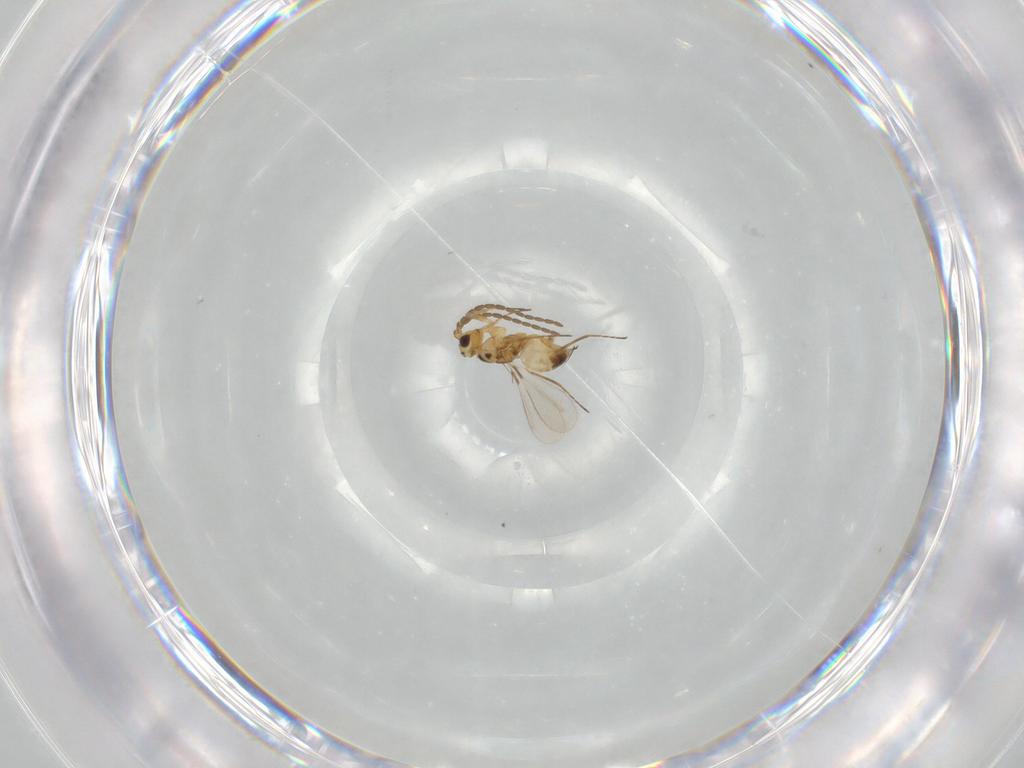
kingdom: Animalia
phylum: Arthropoda
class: Insecta
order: Hymenoptera
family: Mymaridae
